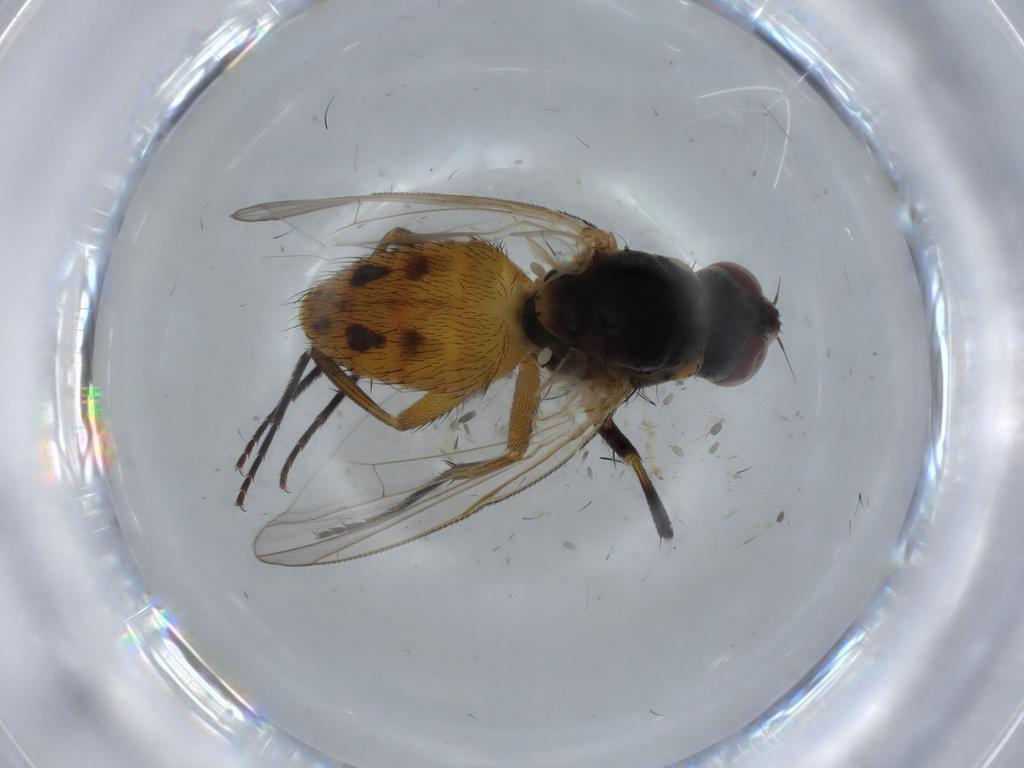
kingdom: Animalia
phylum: Arthropoda
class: Insecta
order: Diptera
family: Muscidae
